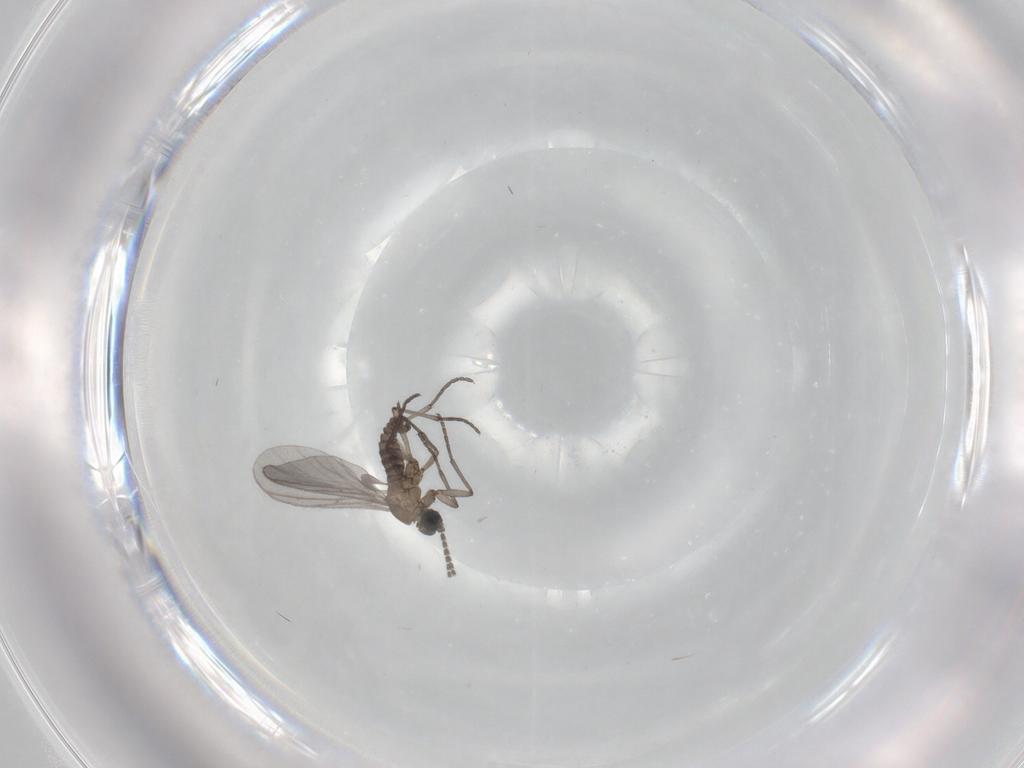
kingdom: Animalia
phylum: Arthropoda
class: Insecta
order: Diptera
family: Sciaridae
